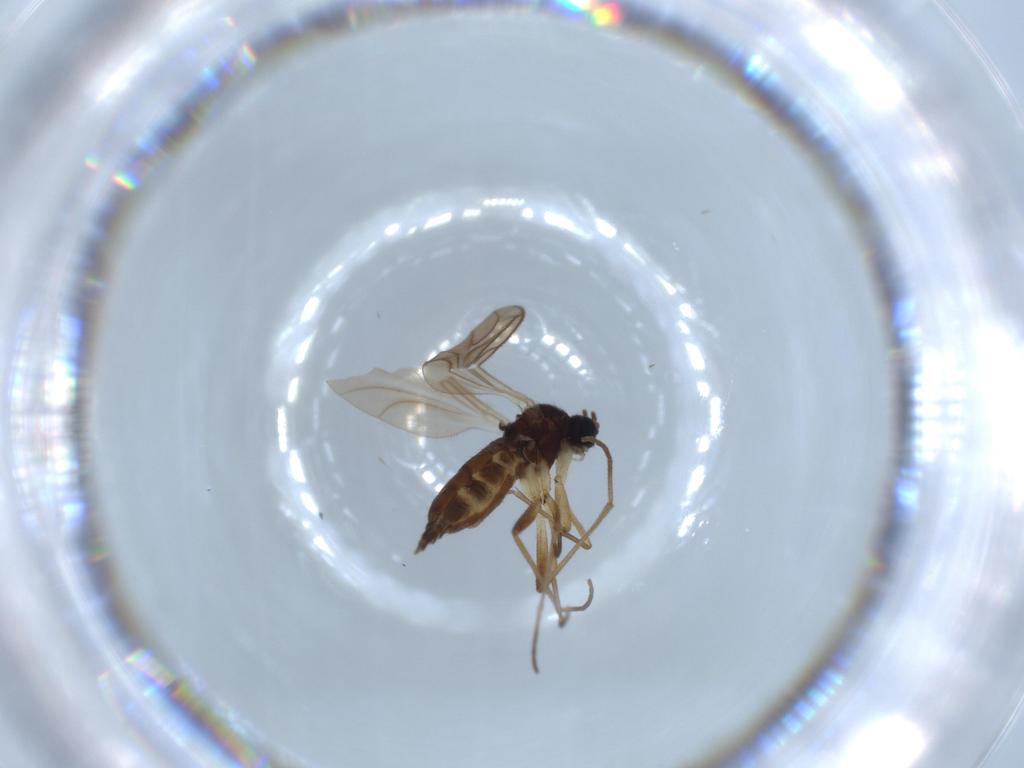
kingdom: Animalia
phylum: Arthropoda
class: Insecta
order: Diptera
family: Sciaridae
